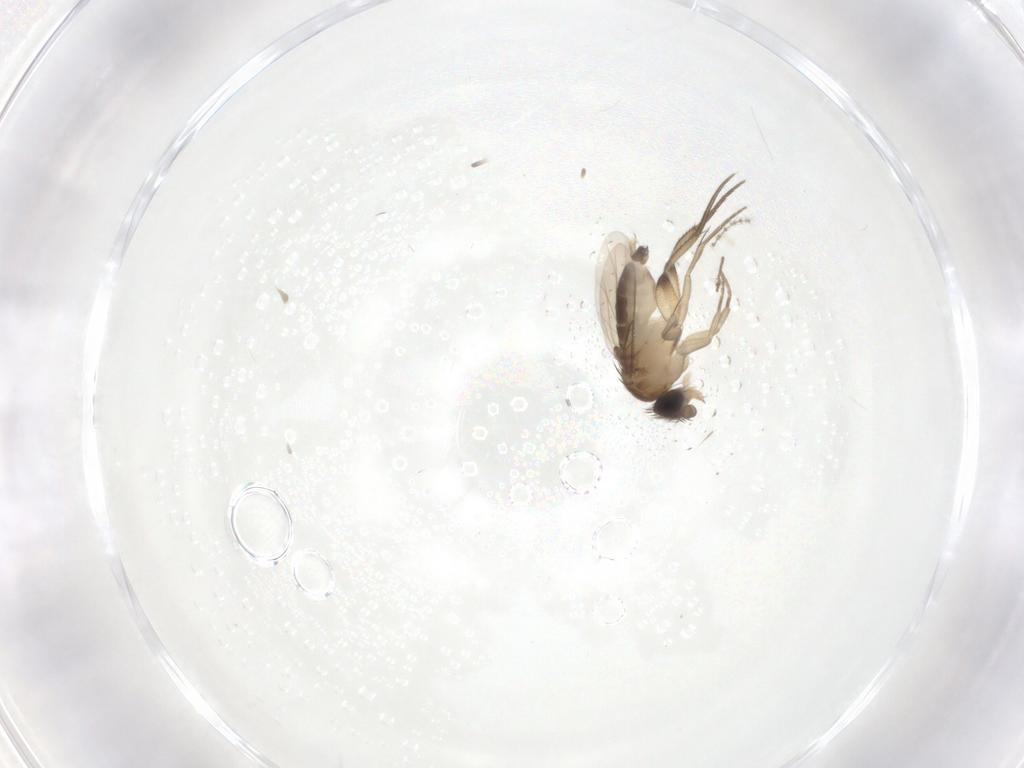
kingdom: Animalia
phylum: Arthropoda
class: Insecta
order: Diptera
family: Phoridae
